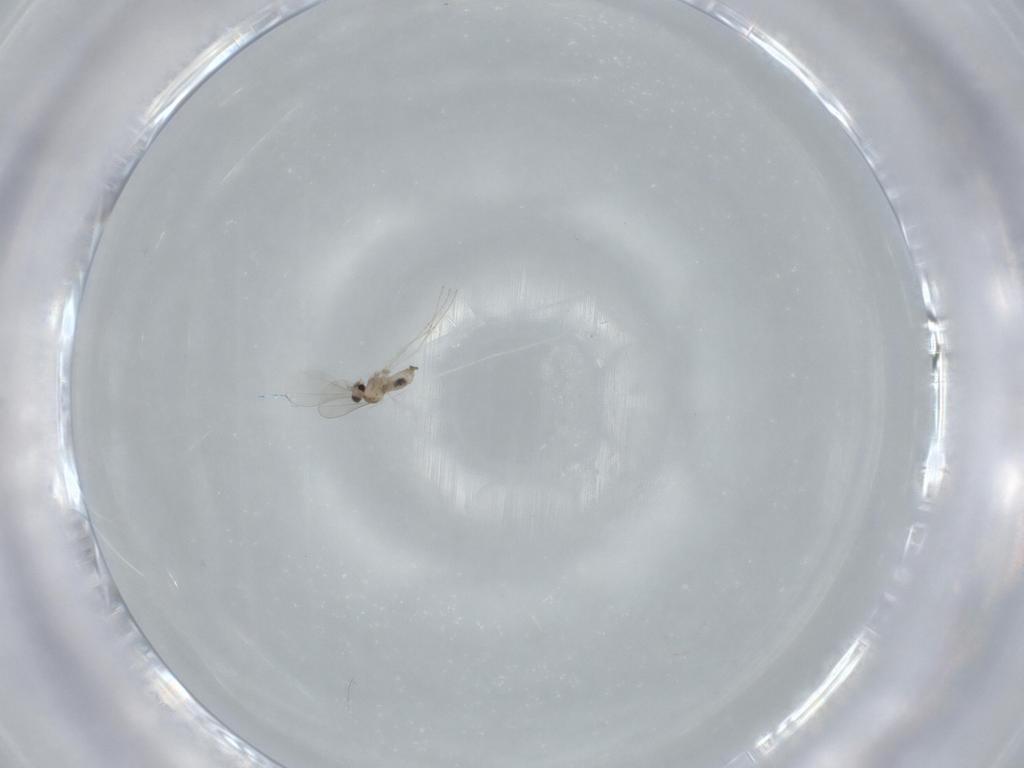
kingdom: Animalia
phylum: Arthropoda
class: Insecta
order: Diptera
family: Cecidomyiidae
